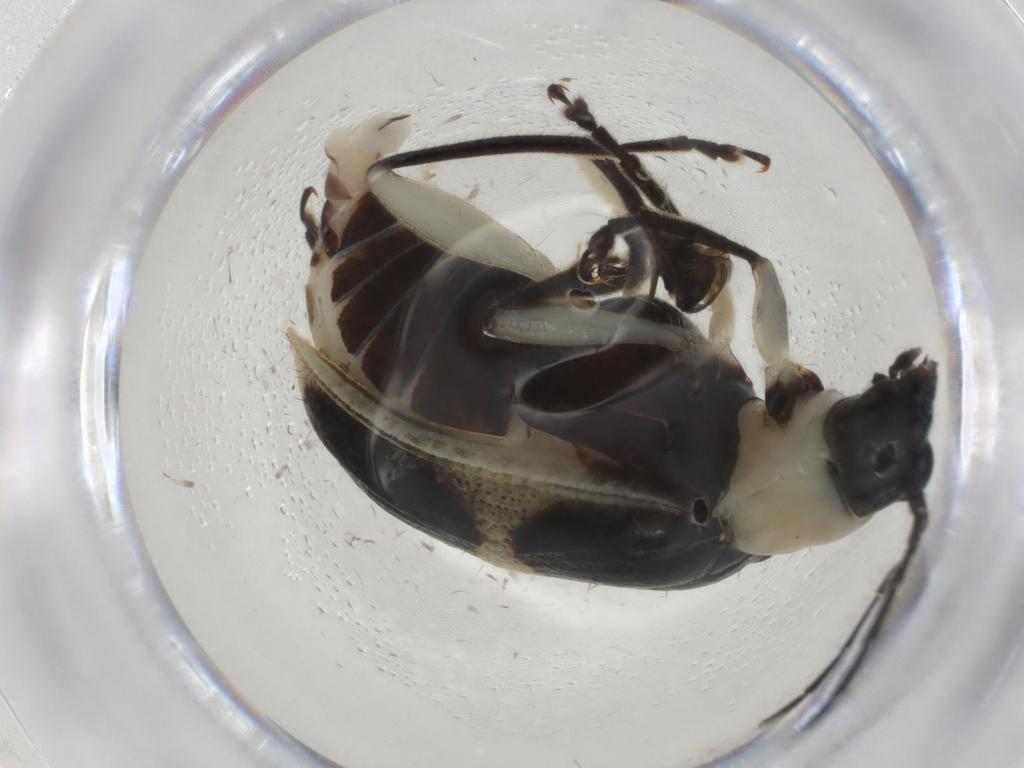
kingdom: Animalia
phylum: Arthropoda
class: Insecta
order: Coleoptera
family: Chrysomelidae
